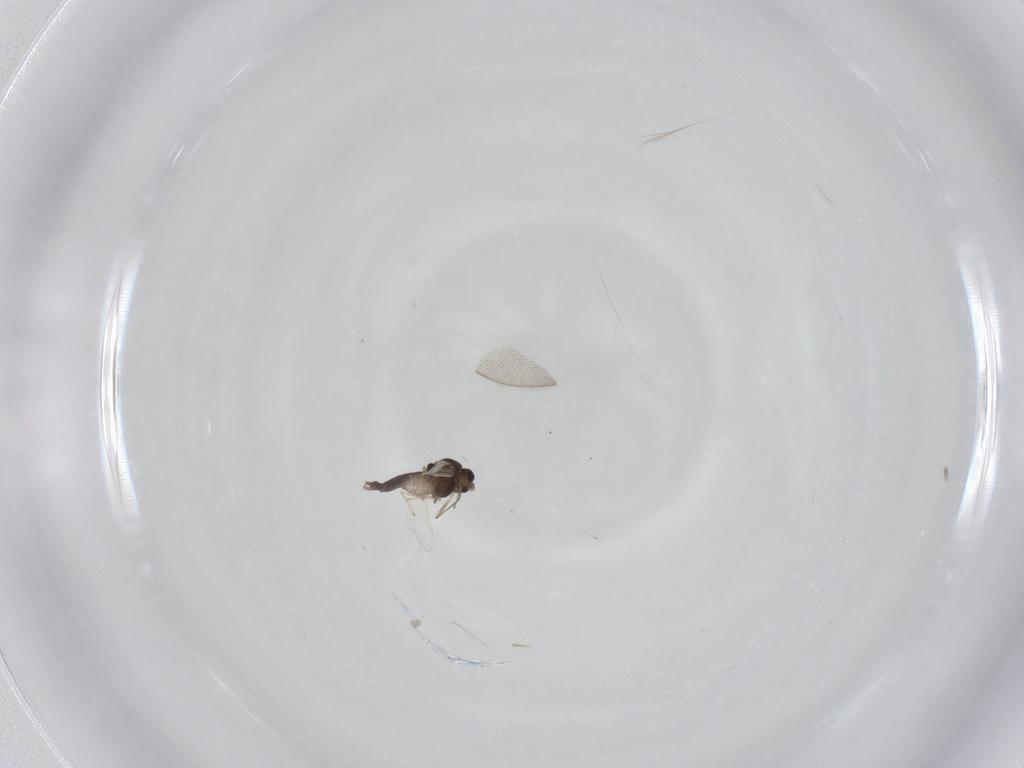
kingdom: Animalia
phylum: Arthropoda
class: Insecta
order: Diptera
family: Chironomidae
